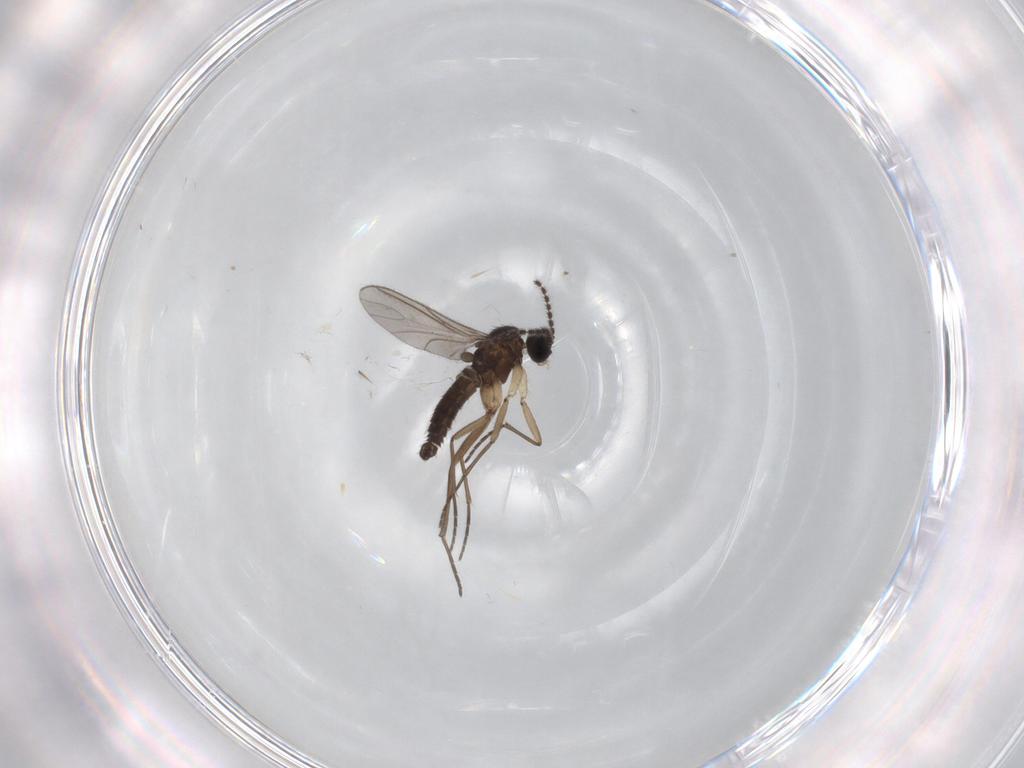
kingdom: Animalia
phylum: Arthropoda
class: Insecta
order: Diptera
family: Sciaridae
